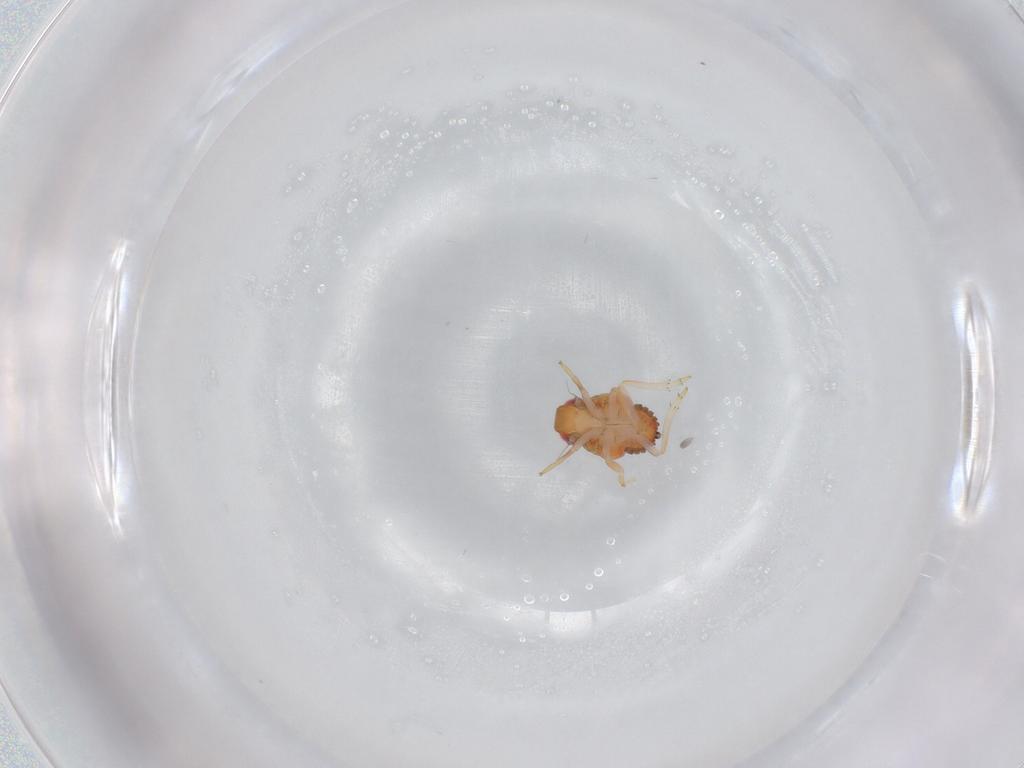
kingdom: Animalia
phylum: Arthropoda
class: Insecta
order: Hemiptera
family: Issidae
